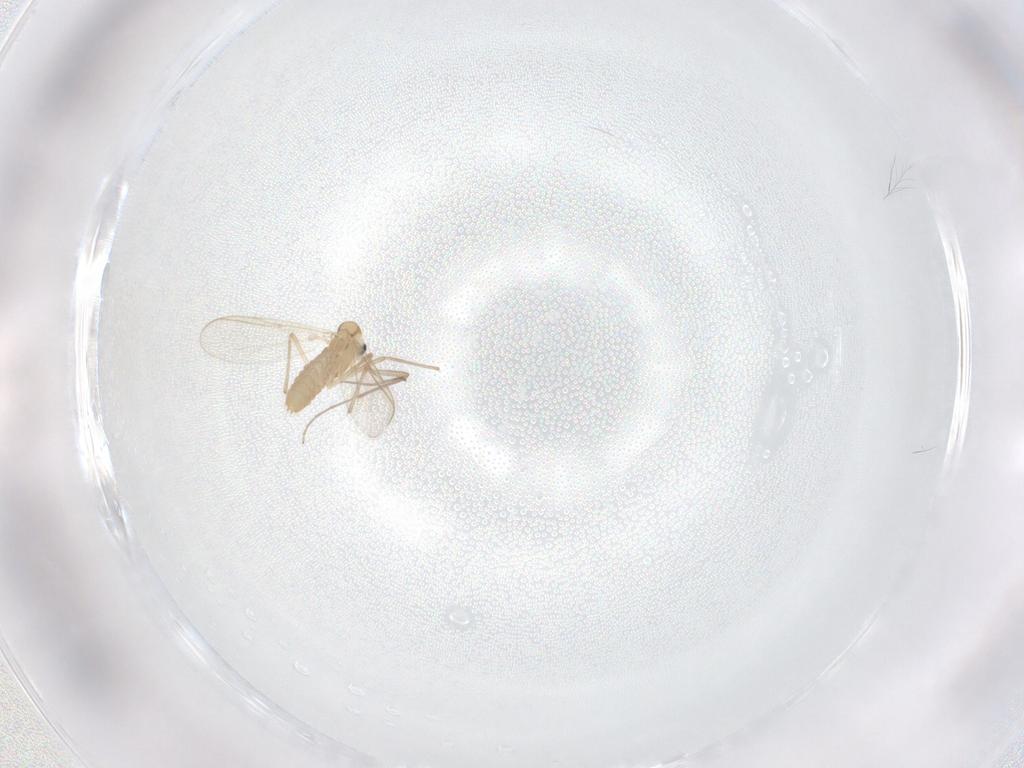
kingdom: Animalia
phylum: Arthropoda
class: Insecta
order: Diptera
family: Chironomidae
